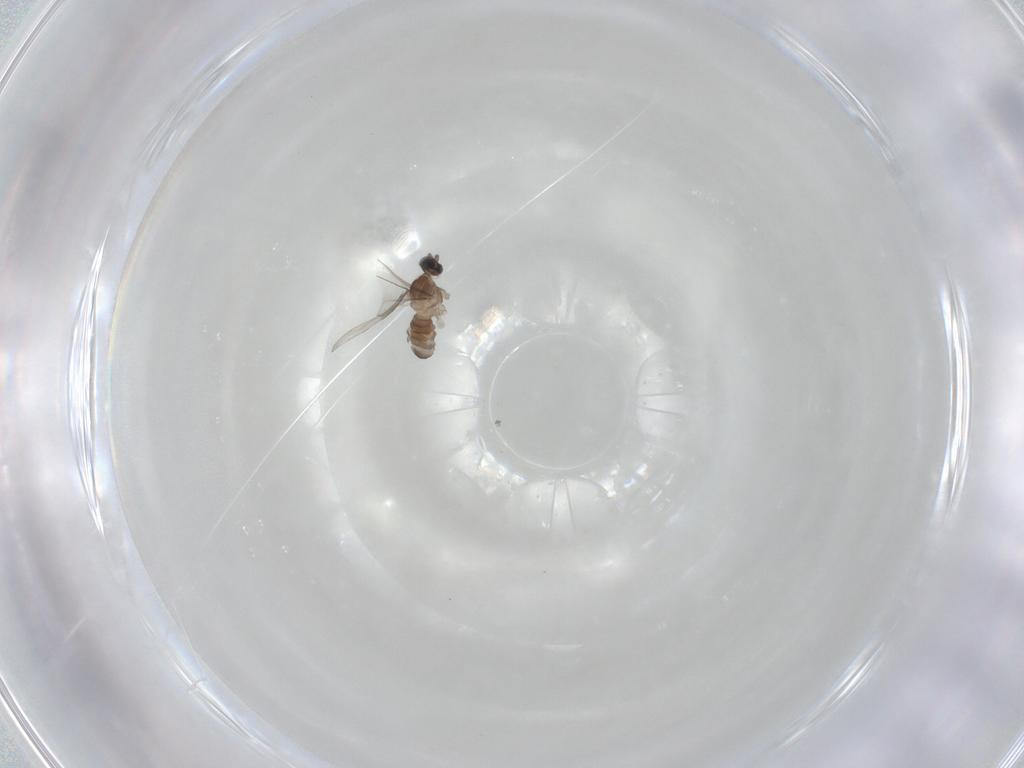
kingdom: Animalia
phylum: Arthropoda
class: Insecta
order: Diptera
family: Cecidomyiidae
